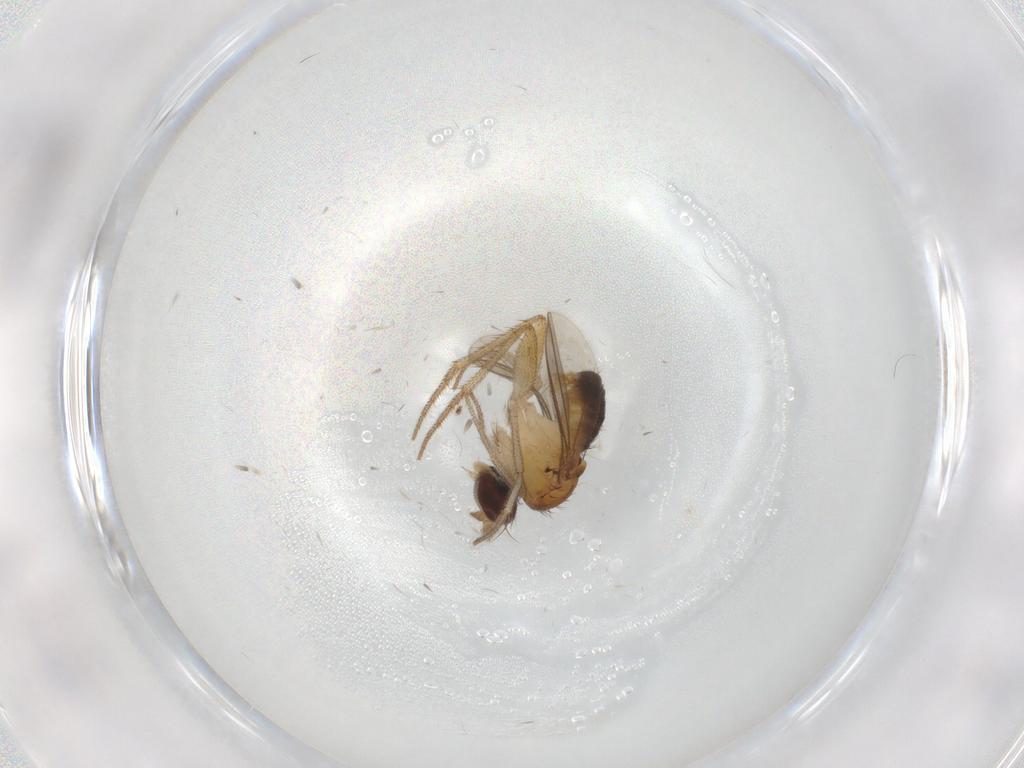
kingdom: Animalia
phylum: Arthropoda
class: Insecta
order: Diptera
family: Dolichopodidae
